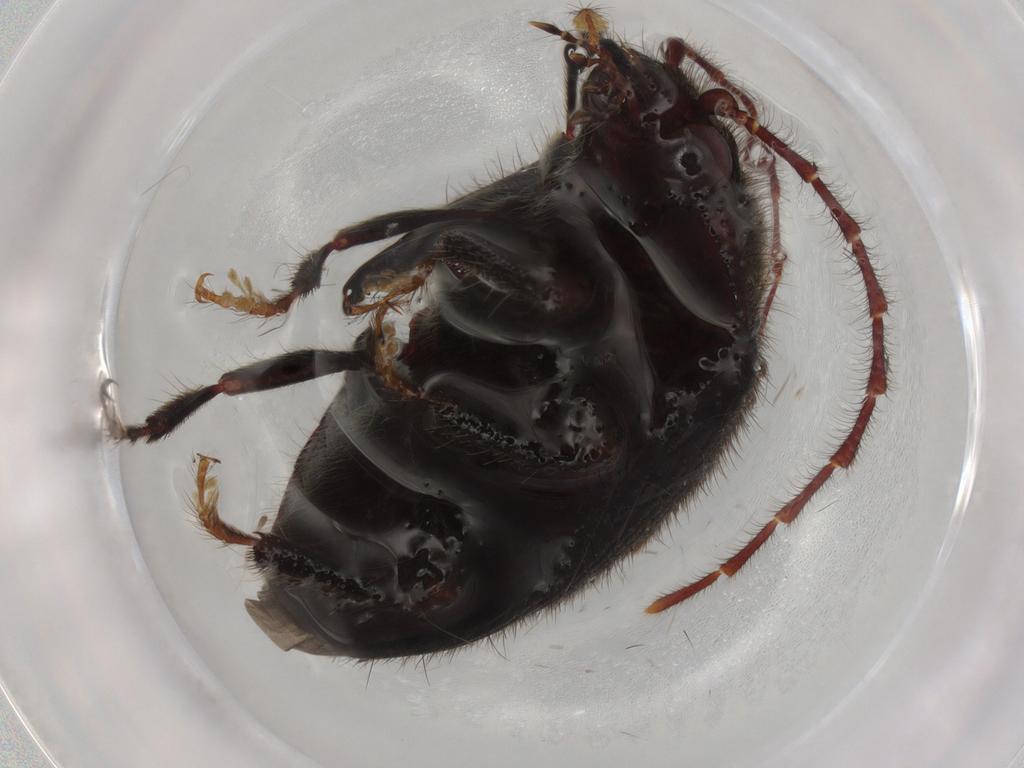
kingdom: Animalia
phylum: Arthropoda
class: Insecta
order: Coleoptera
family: Artematopodidae
